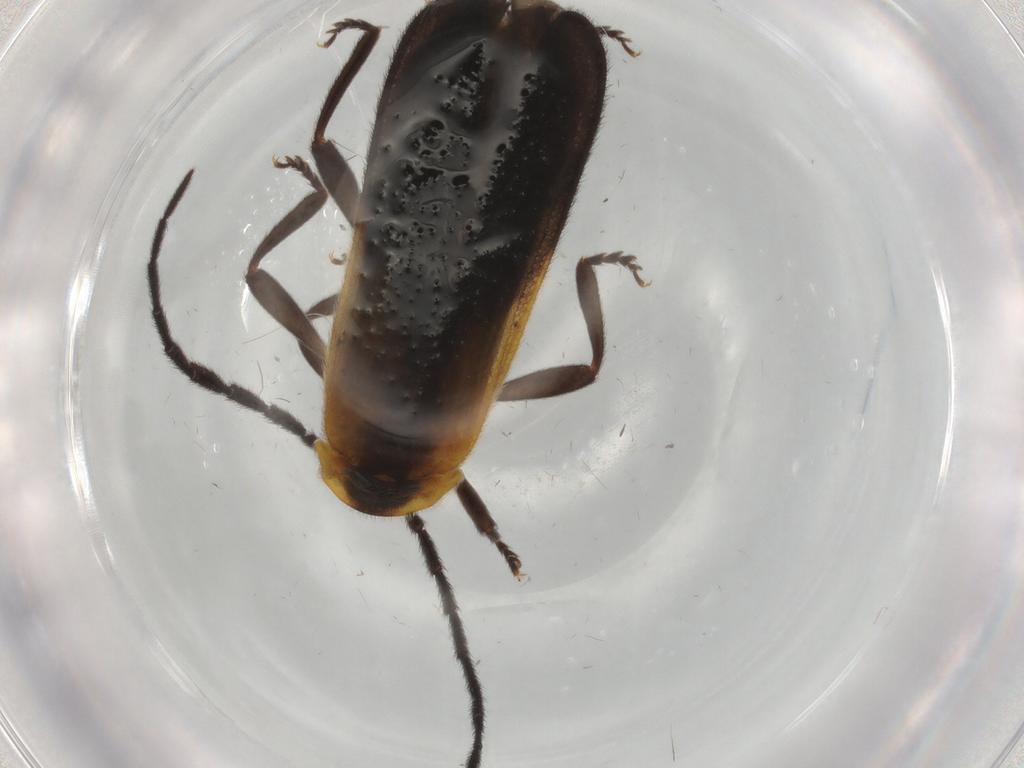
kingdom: Animalia
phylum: Arthropoda
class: Insecta
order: Coleoptera
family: Lycidae
